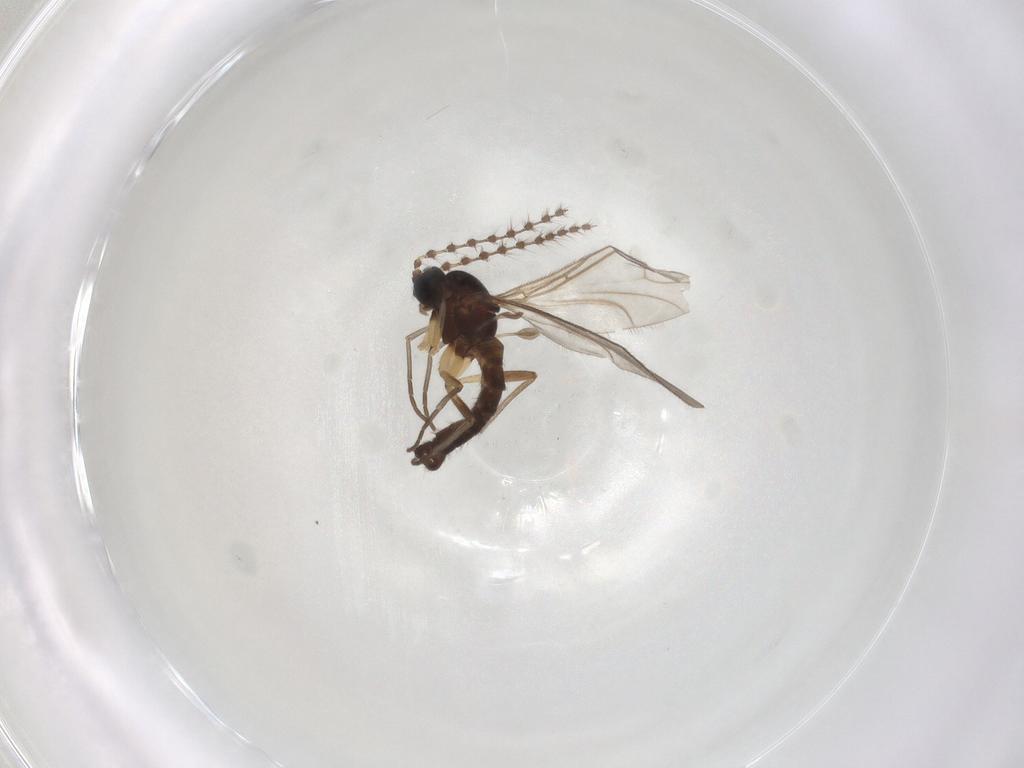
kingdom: Animalia
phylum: Arthropoda
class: Insecta
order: Diptera
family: Sciaridae
